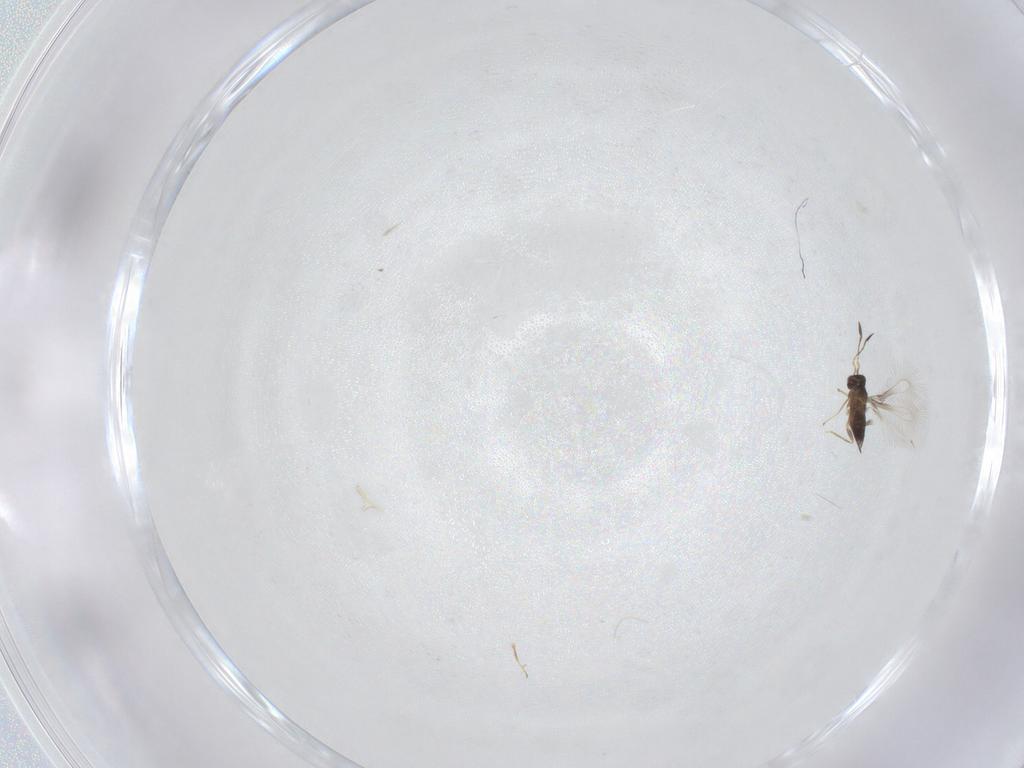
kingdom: Animalia
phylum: Arthropoda
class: Insecta
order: Hymenoptera
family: Mymaridae
